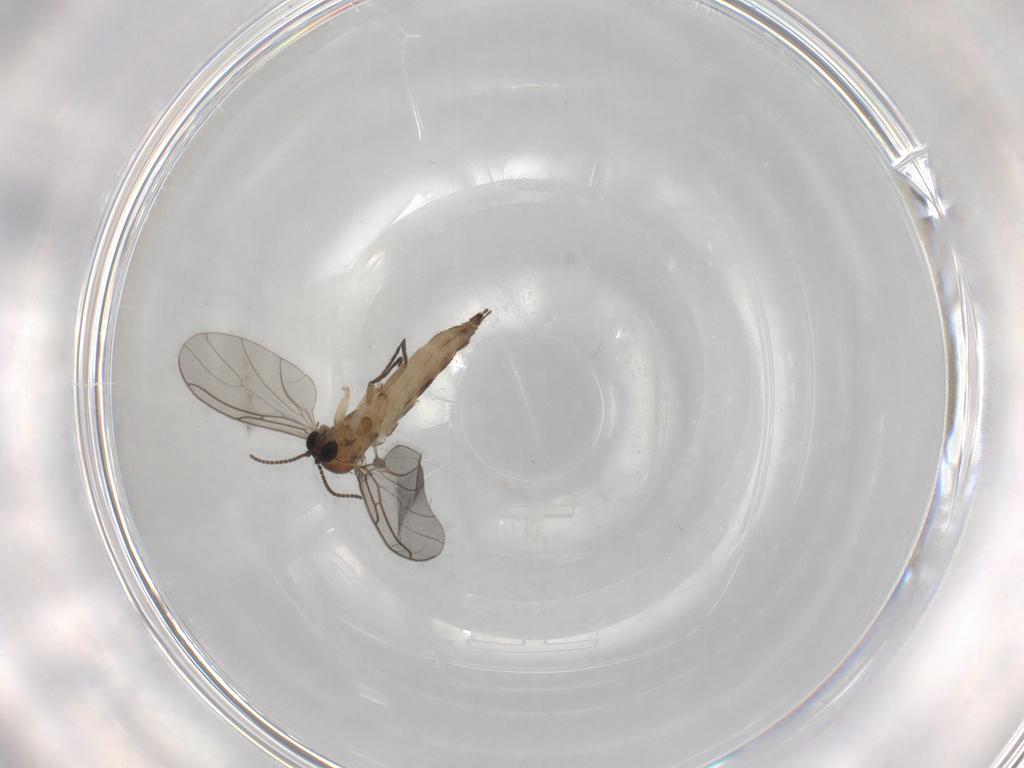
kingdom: Animalia
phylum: Arthropoda
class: Insecta
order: Diptera
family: Sciaridae
